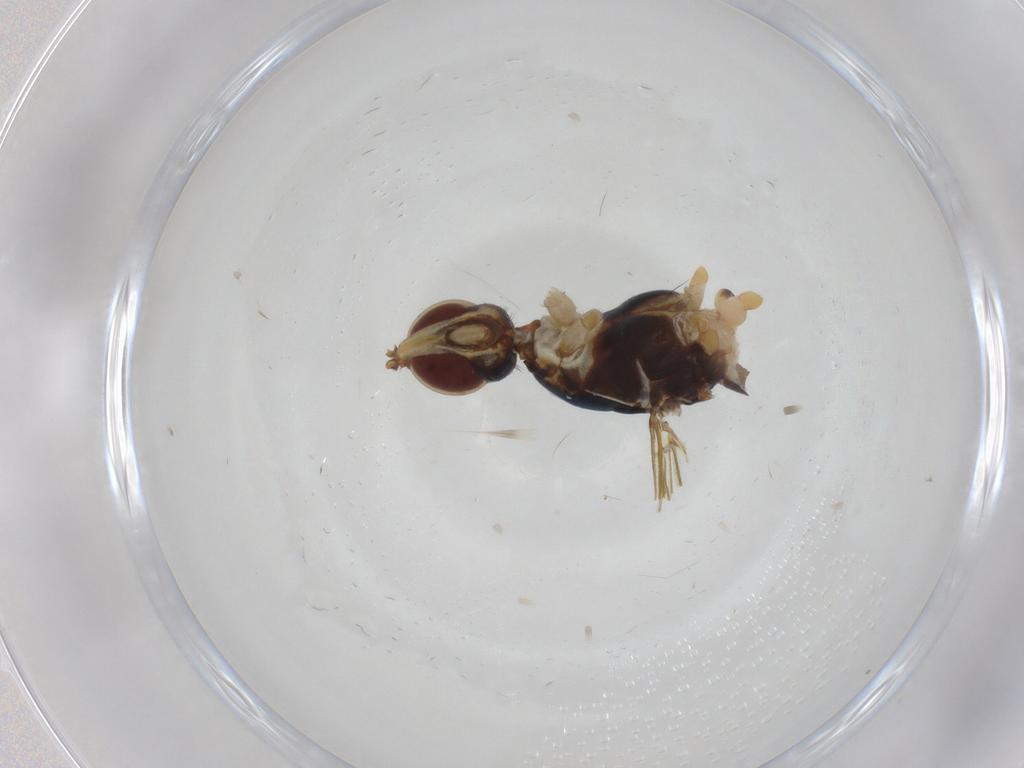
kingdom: Animalia
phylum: Arthropoda
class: Insecta
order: Diptera
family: Micropezidae
